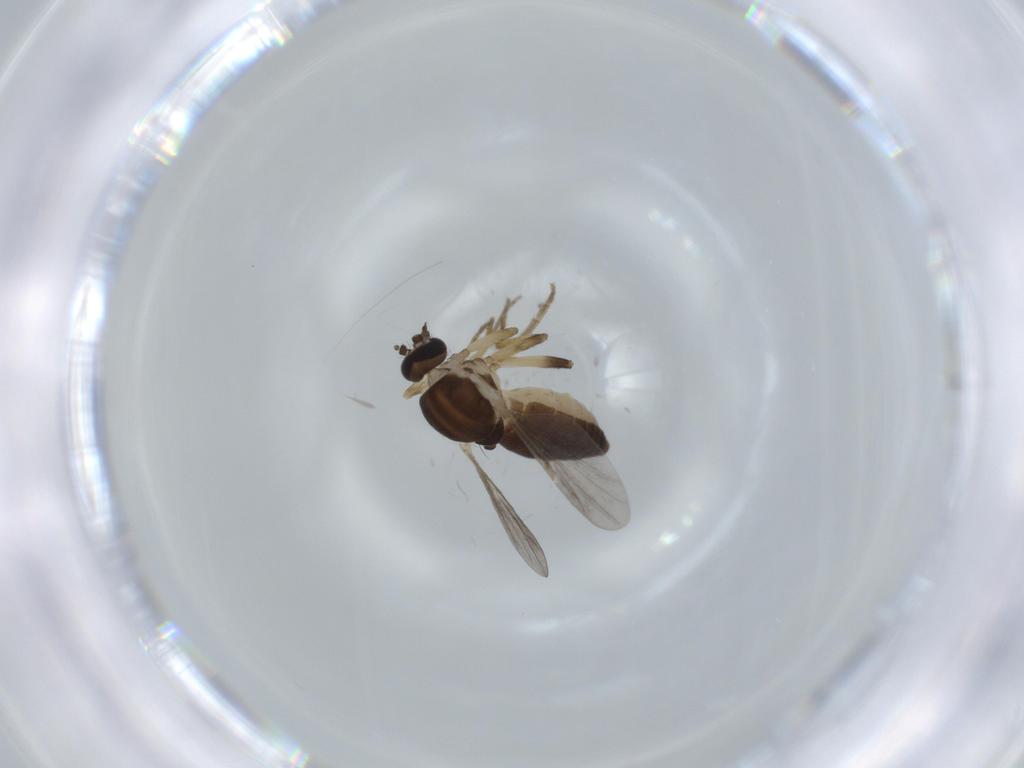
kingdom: Animalia
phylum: Arthropoda
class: Insecta
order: Diptera
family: Ceratopogonidae
